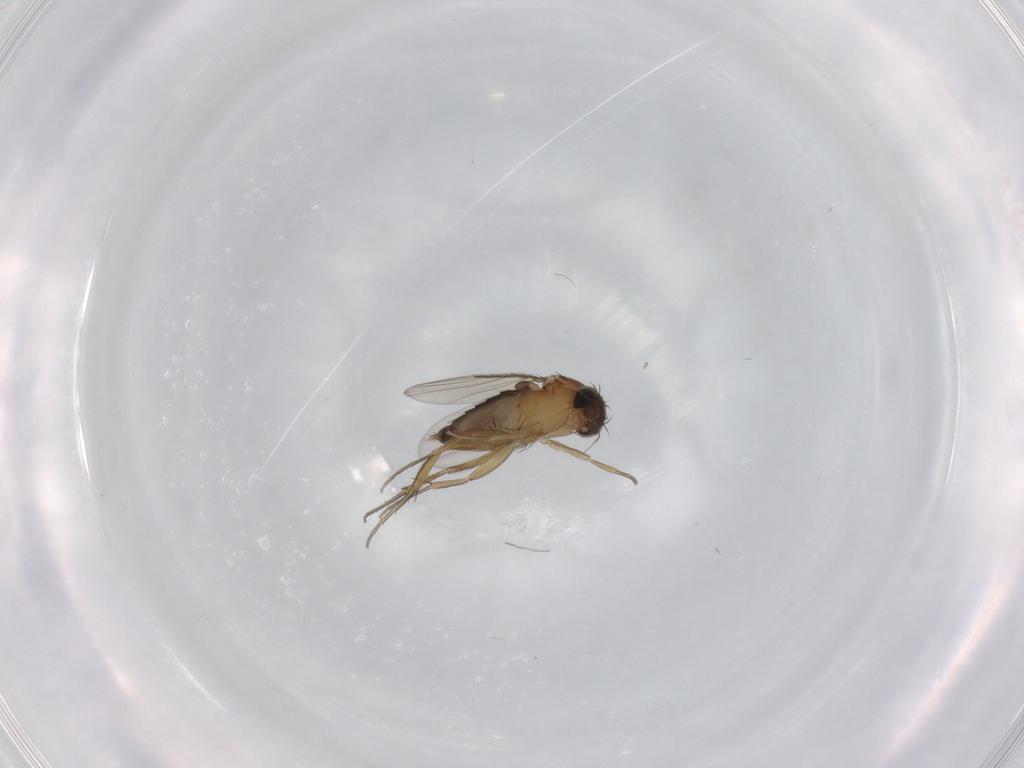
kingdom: Animalia
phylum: Arthropoda
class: Insecta
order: Diptera
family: Phoridae
